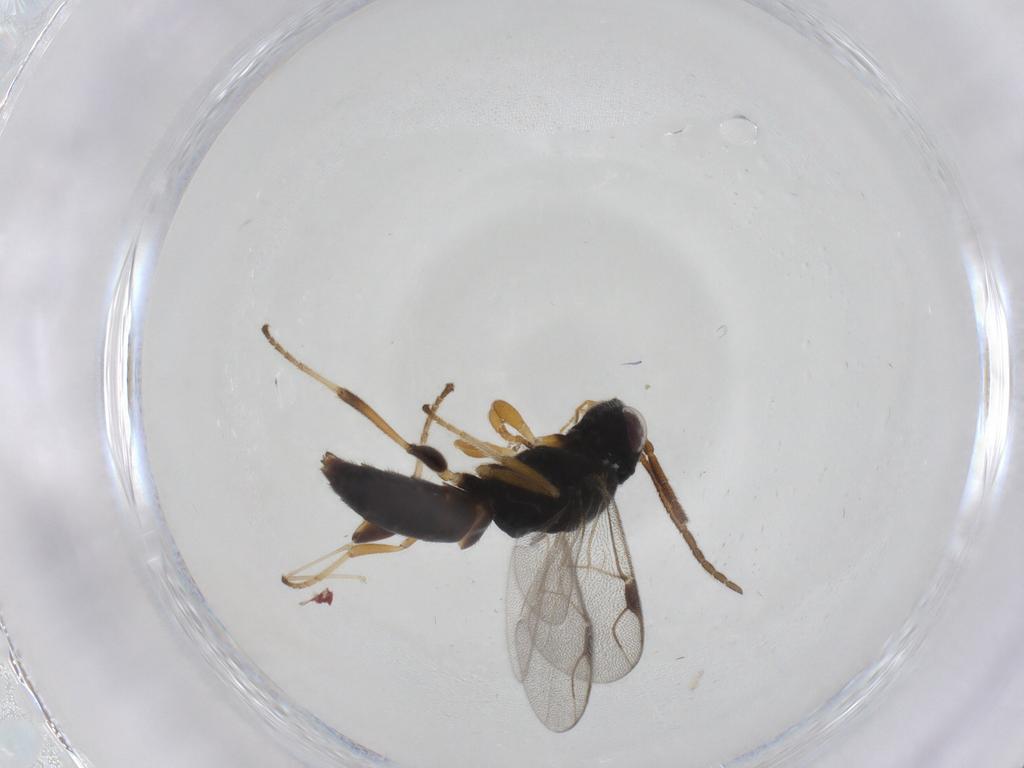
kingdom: Animalia
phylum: Arthropoda
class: Insecta
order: Hymenoptera
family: Dryinidae
